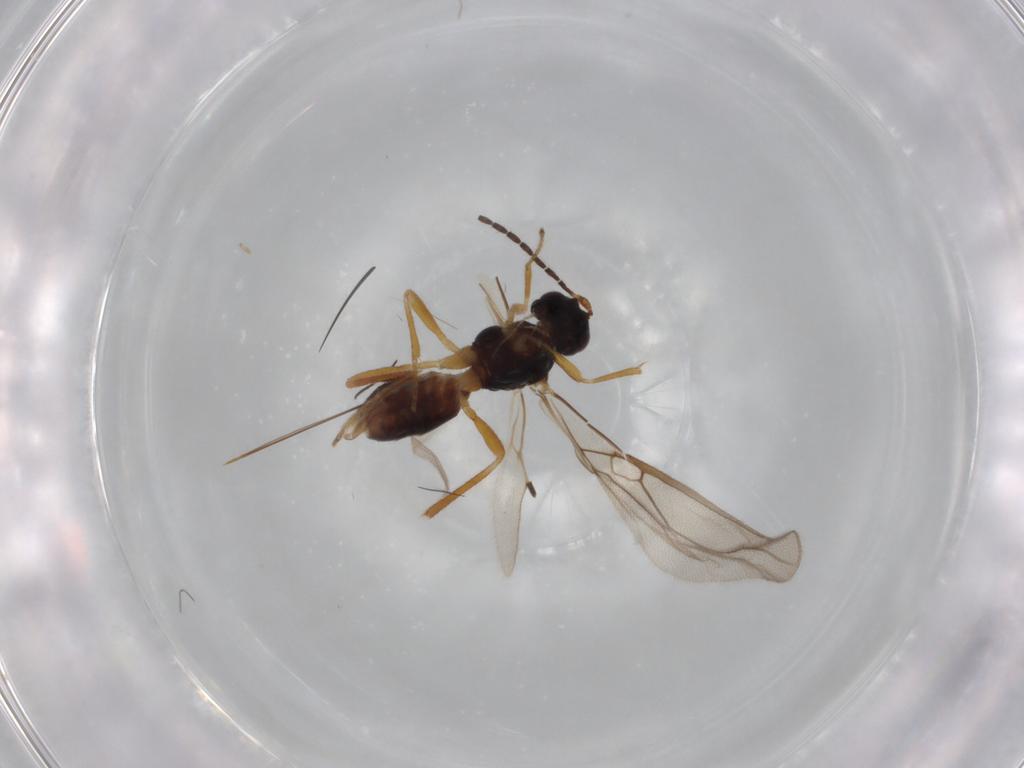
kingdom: Animalia
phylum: Arthropoda
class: Insecta
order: Hymenoptera
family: Braconidae
